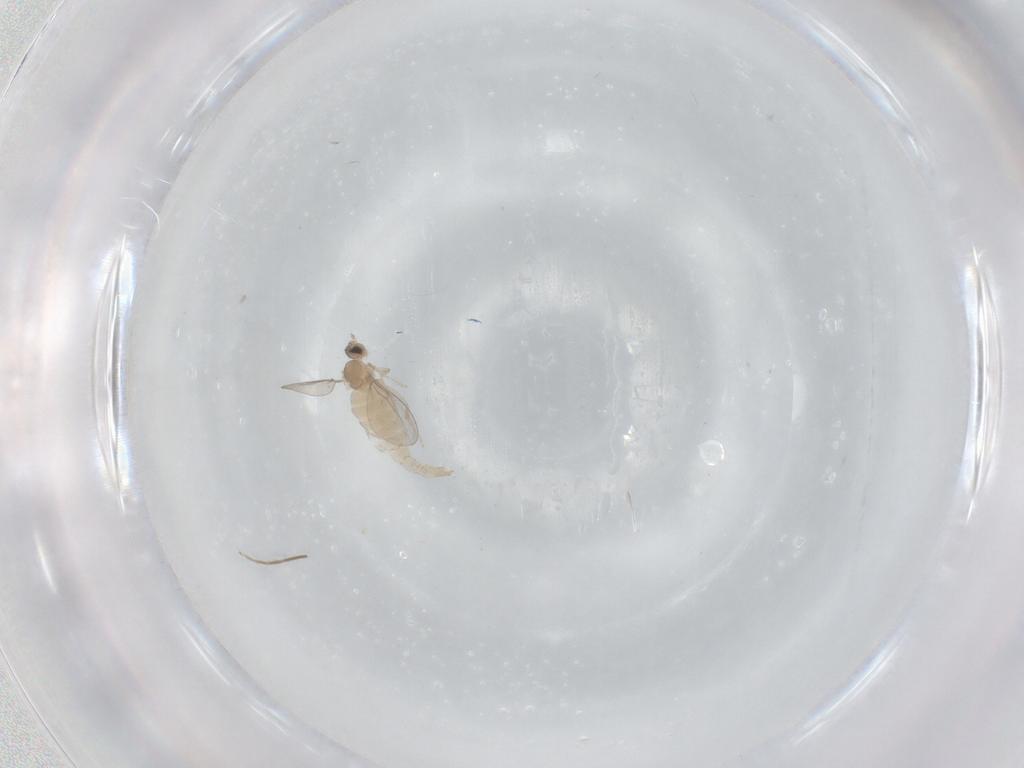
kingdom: Animalia
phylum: Arthropoda
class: Insecta
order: Diptera
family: Cecidomyiidae
